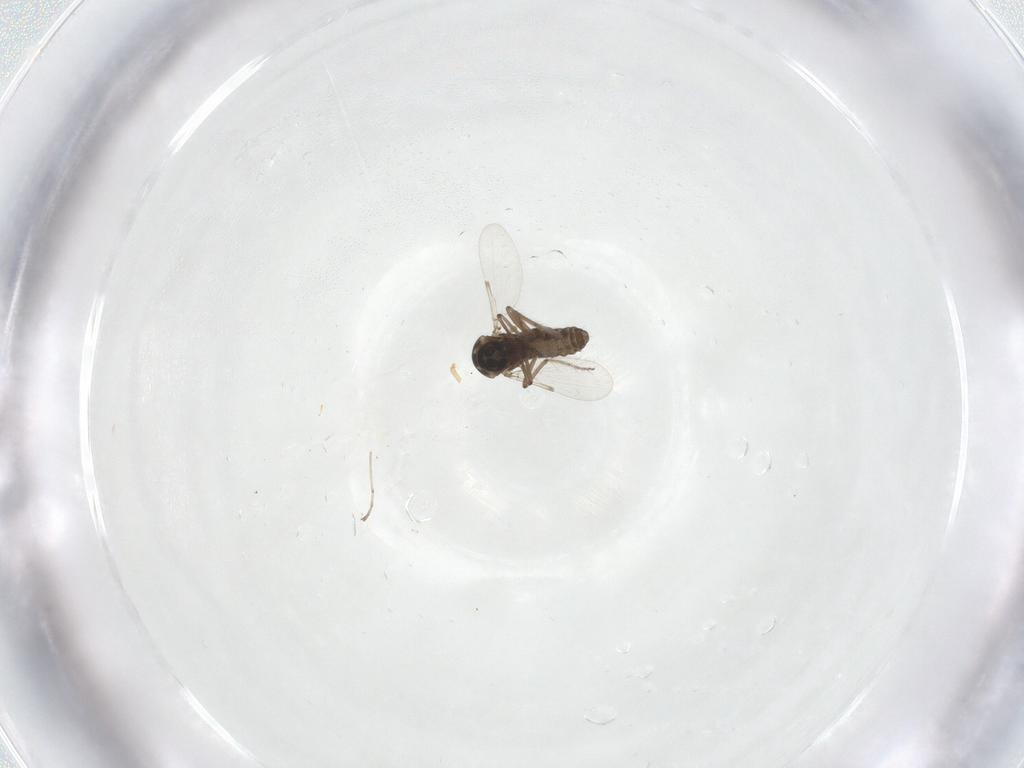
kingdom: Animalia
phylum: Arthropoda
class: Insecta
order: Diptera
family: Ceratopogonidae
